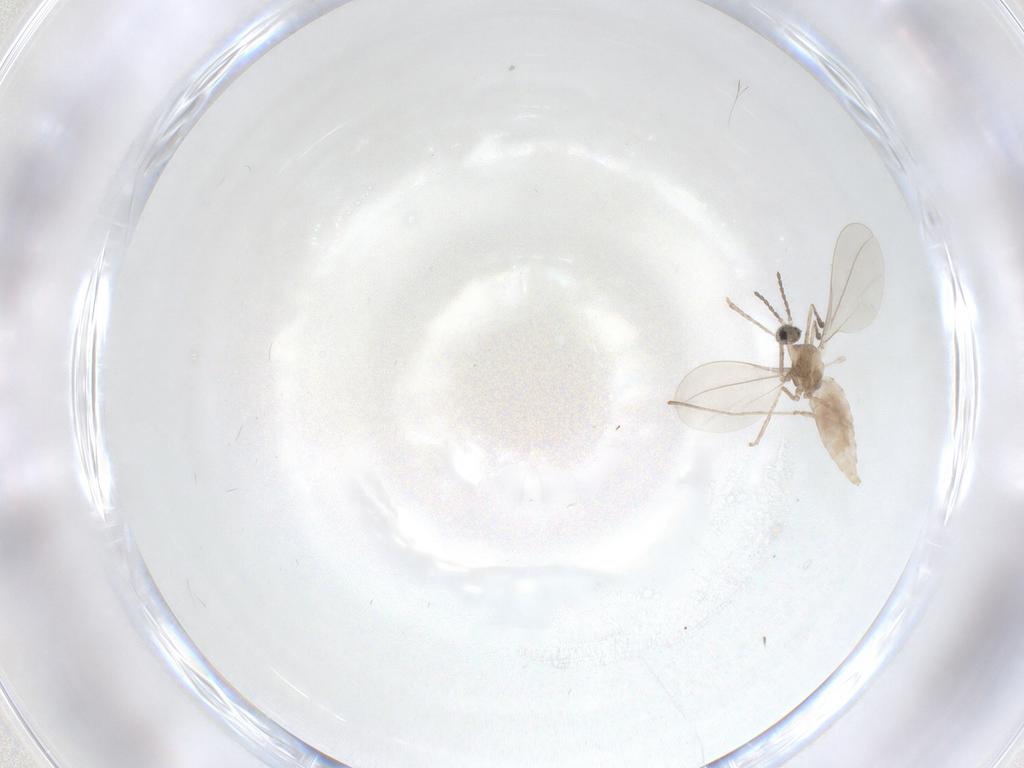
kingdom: Animalia
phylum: Arthropoda
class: Insecta
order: Diptera
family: Cecidomyiidae
